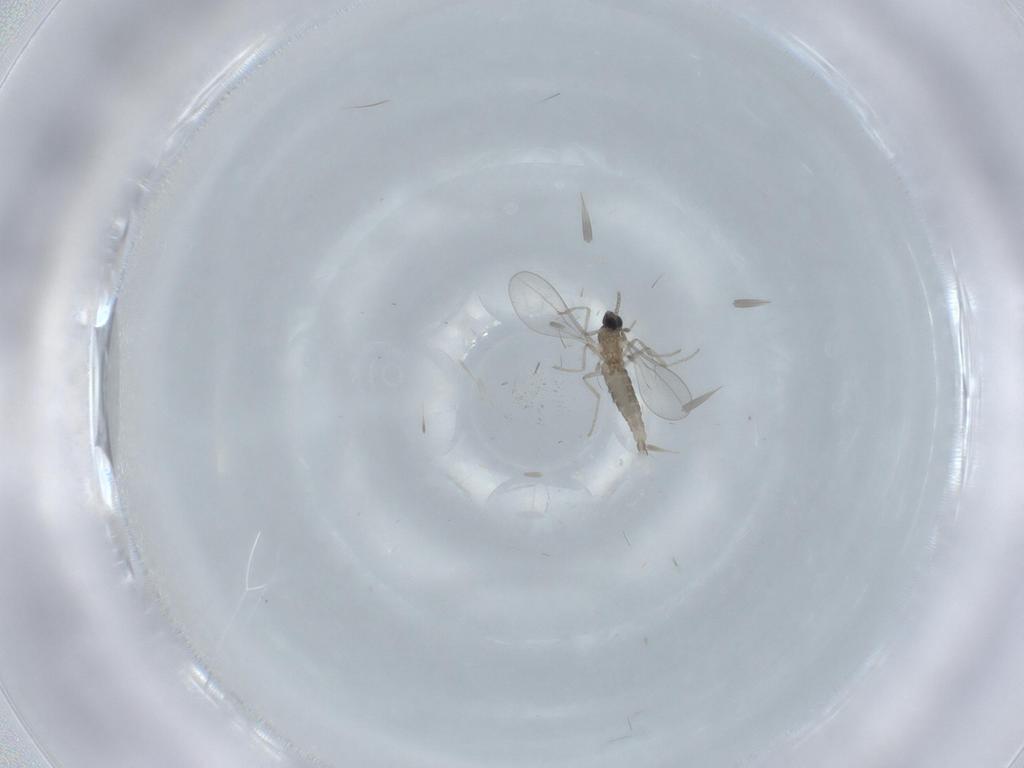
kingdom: Animalia
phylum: Arthropoda
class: Insecta
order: Diptera
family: Cecidomyiidae
